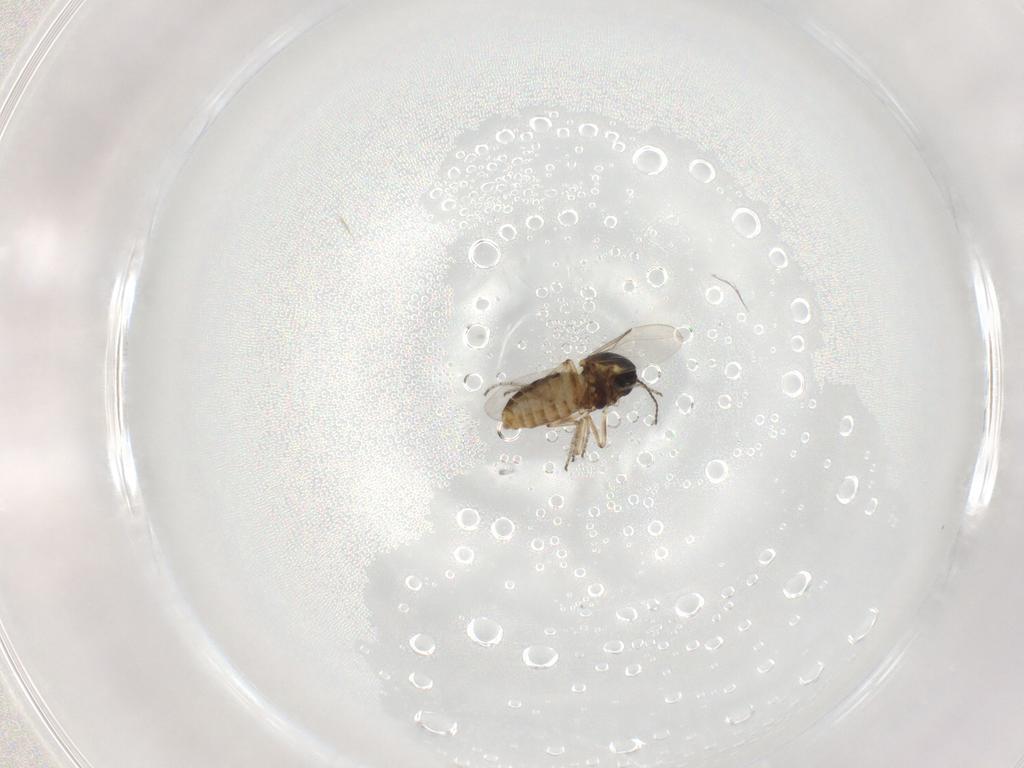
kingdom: Animalia
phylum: Arthropoda
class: Insecta
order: Diptera
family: Ceratopogonidae
